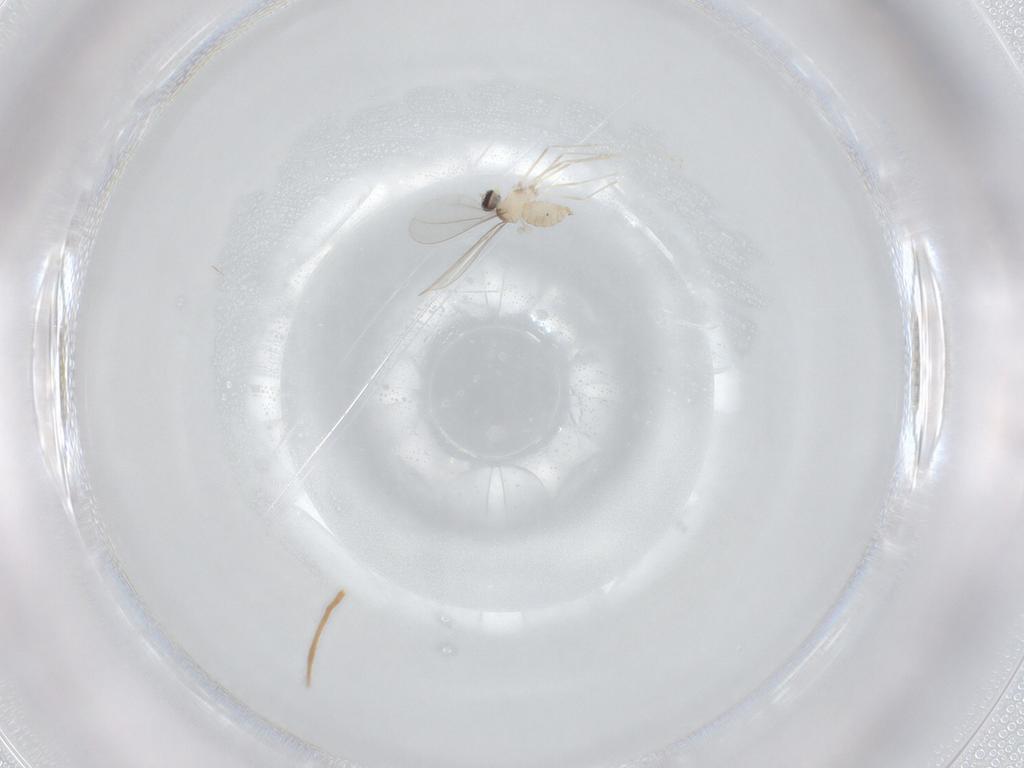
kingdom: Animalia
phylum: Arthropoda
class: Insecta
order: Diptera
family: Cecidomyiidae
